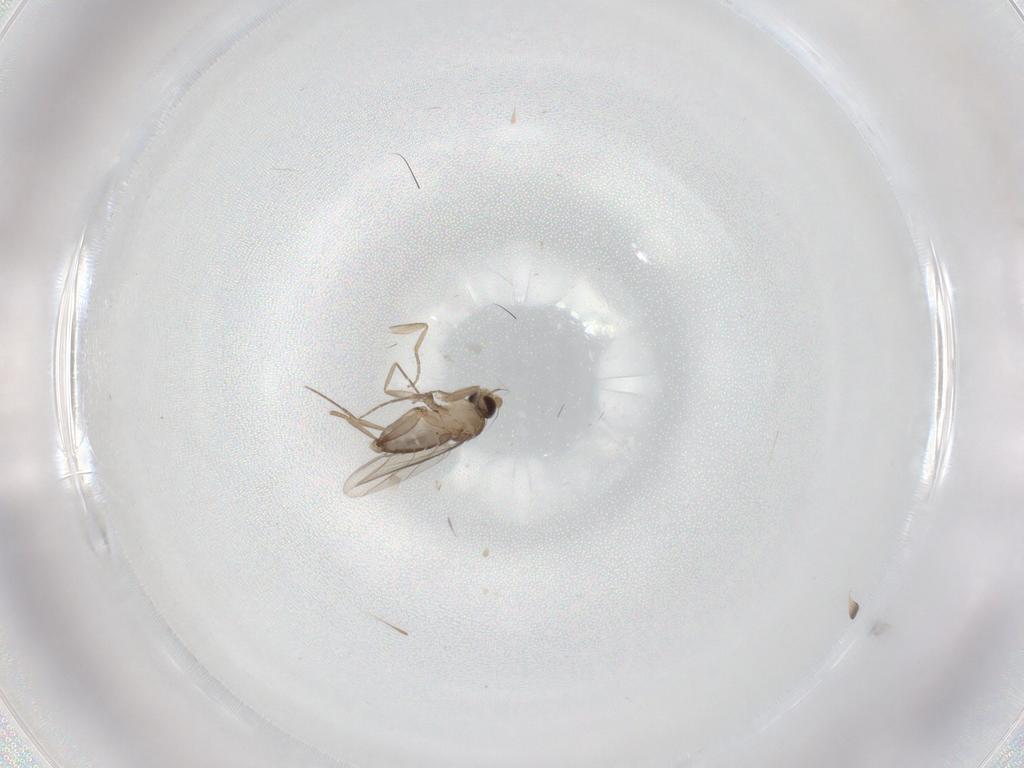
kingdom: Animalia
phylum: Arthropoda
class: Insecta
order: Diptera
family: Phoridae
